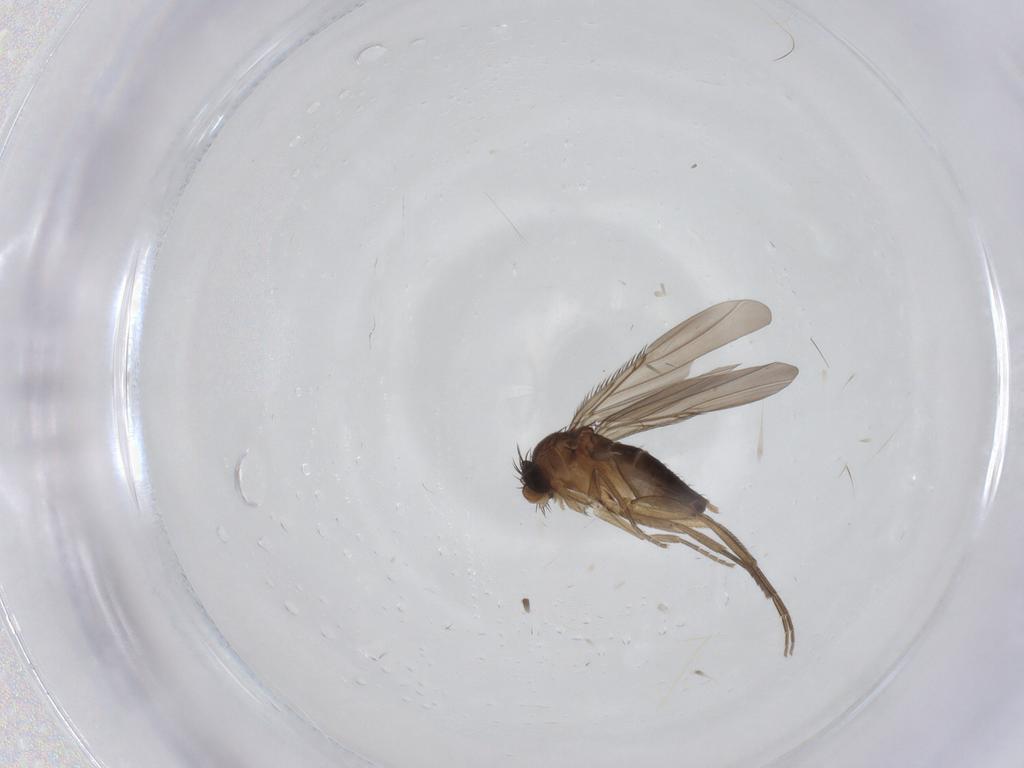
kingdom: Animalia
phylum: Arthropoda
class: Insecta
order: Diptera
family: Phoridae
